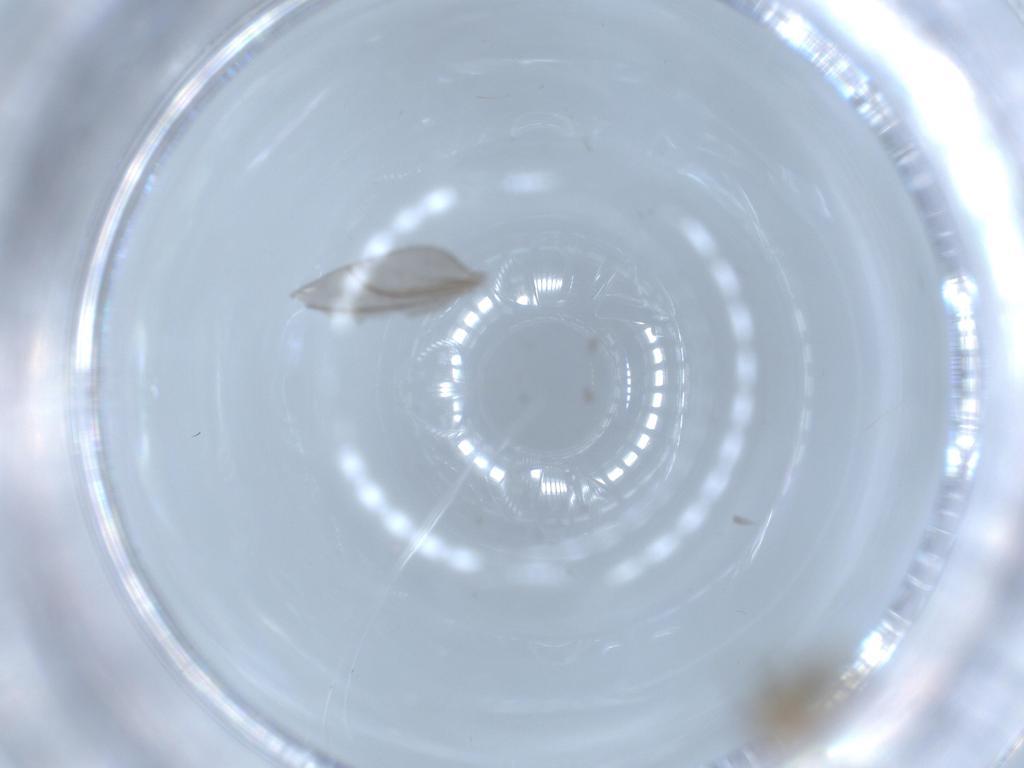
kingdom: Animalia
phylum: Arthropoda
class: Insecta
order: Diptera
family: Chironomidae
